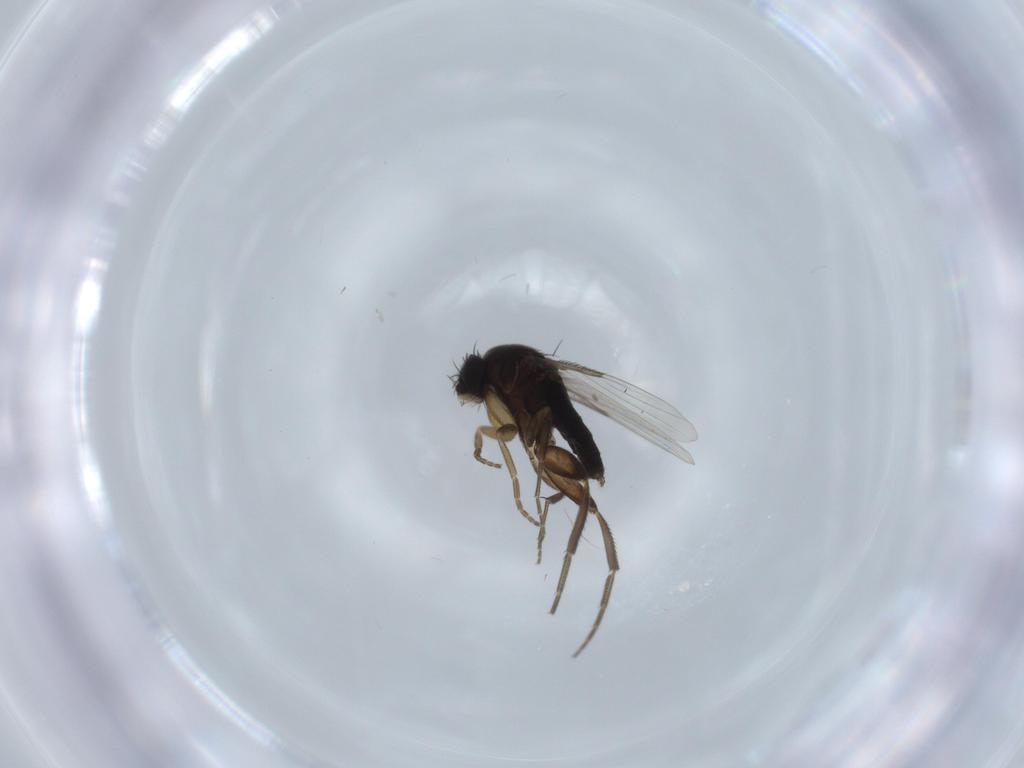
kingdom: Animalia
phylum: Arthropoda
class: Insecta
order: Diptera
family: Phoridae
